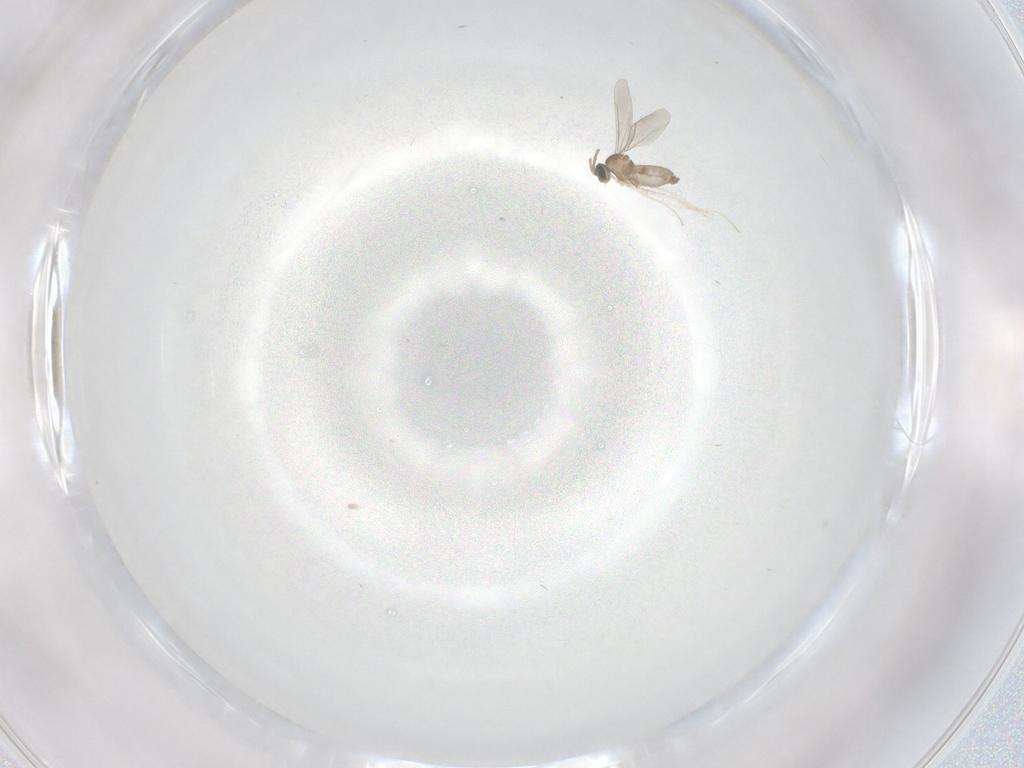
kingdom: Animalia
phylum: Arthropoda
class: Insecta
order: Diptera
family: Cecidomyiidae
